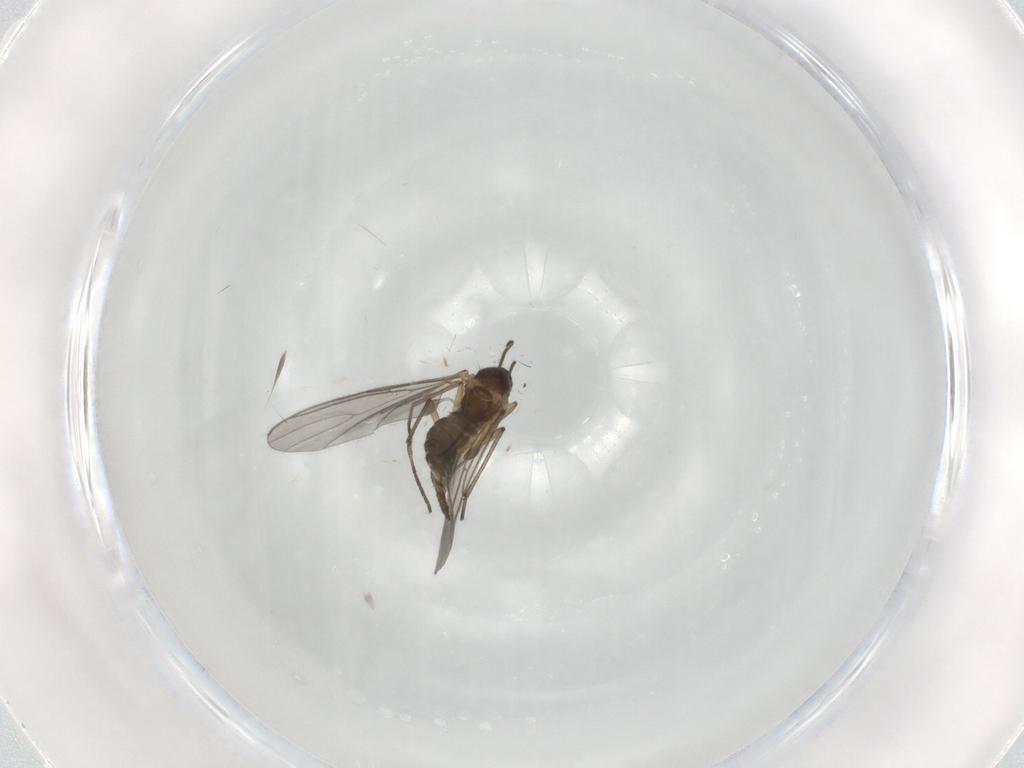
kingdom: Animalia
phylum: Arthropoda
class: Insecta
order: Diptera
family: Sciaridae
